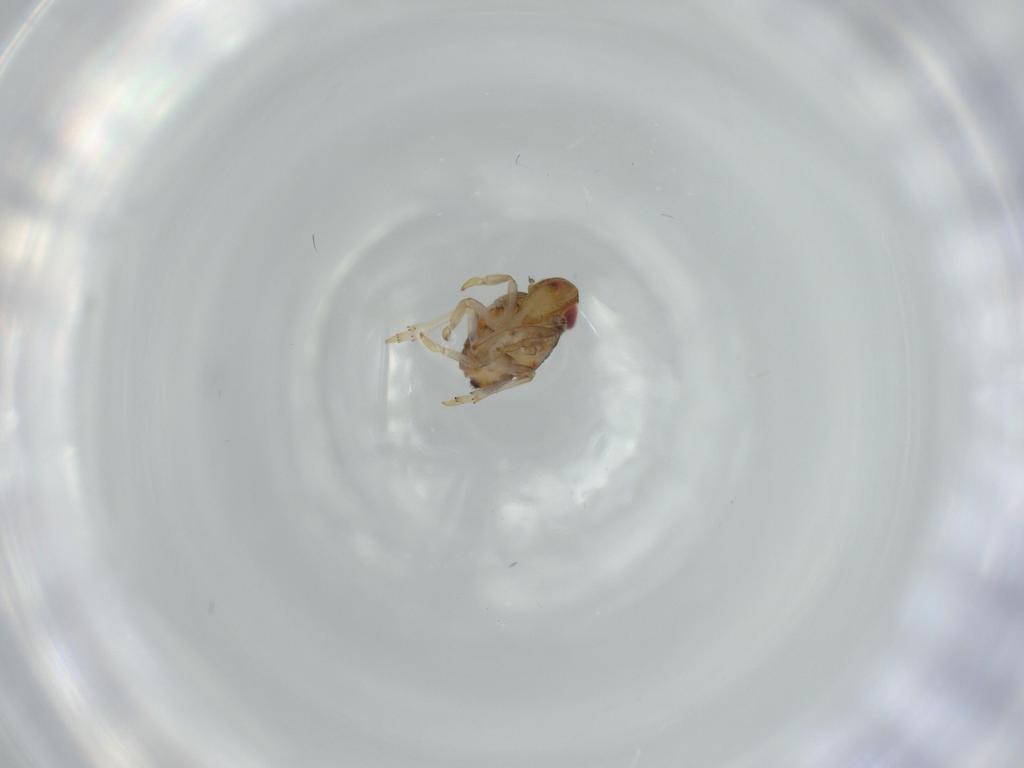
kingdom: Animalia
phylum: Arthropoda
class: Insecta
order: Hemiptera
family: Issidae
